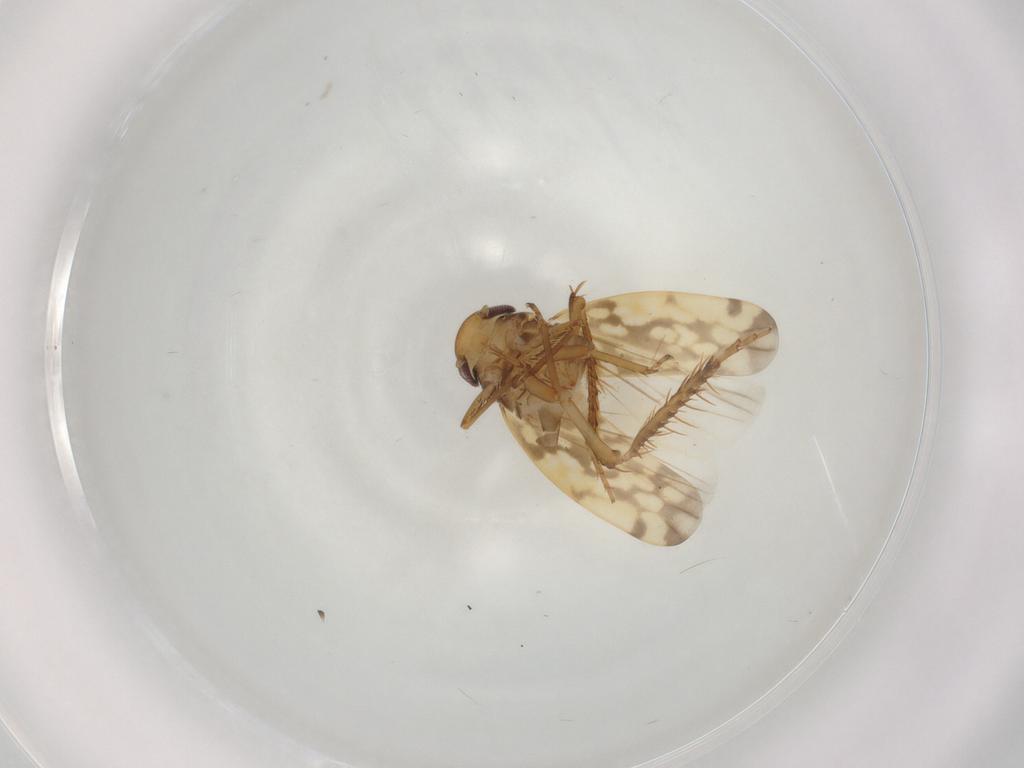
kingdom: Animalia
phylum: Arthropoda
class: Insecta
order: Hemiptera
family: Cicadellidae
